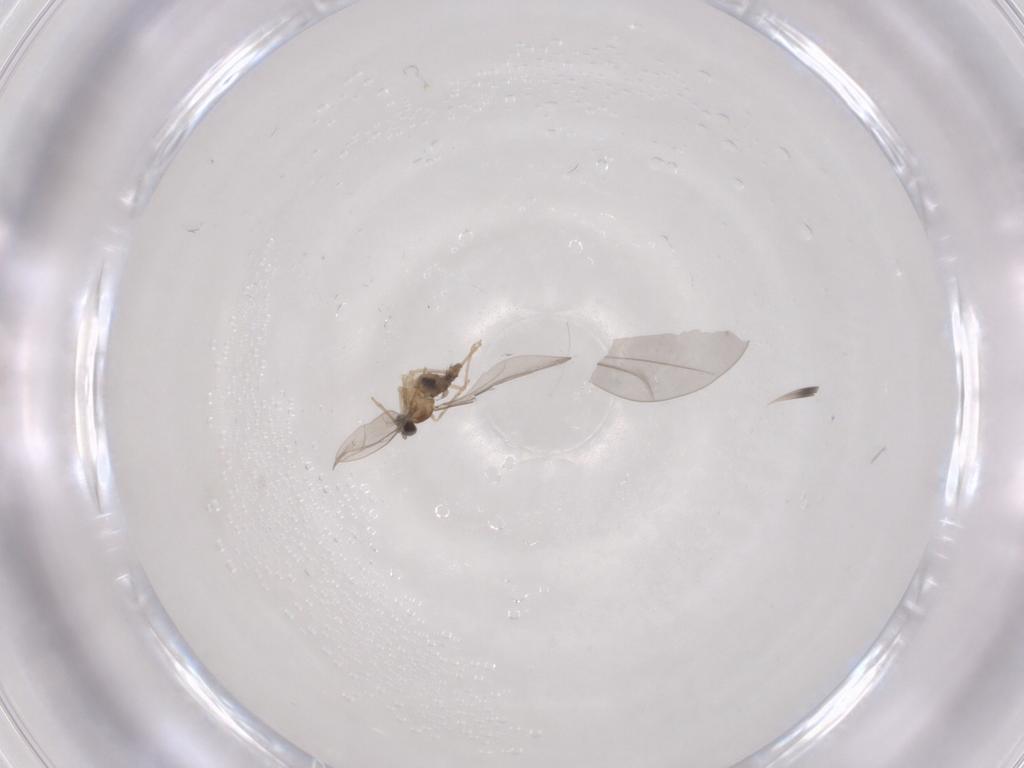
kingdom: Animalia
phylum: Arthropoda
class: Insecta
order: Diptera
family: Cecidomyiidae
